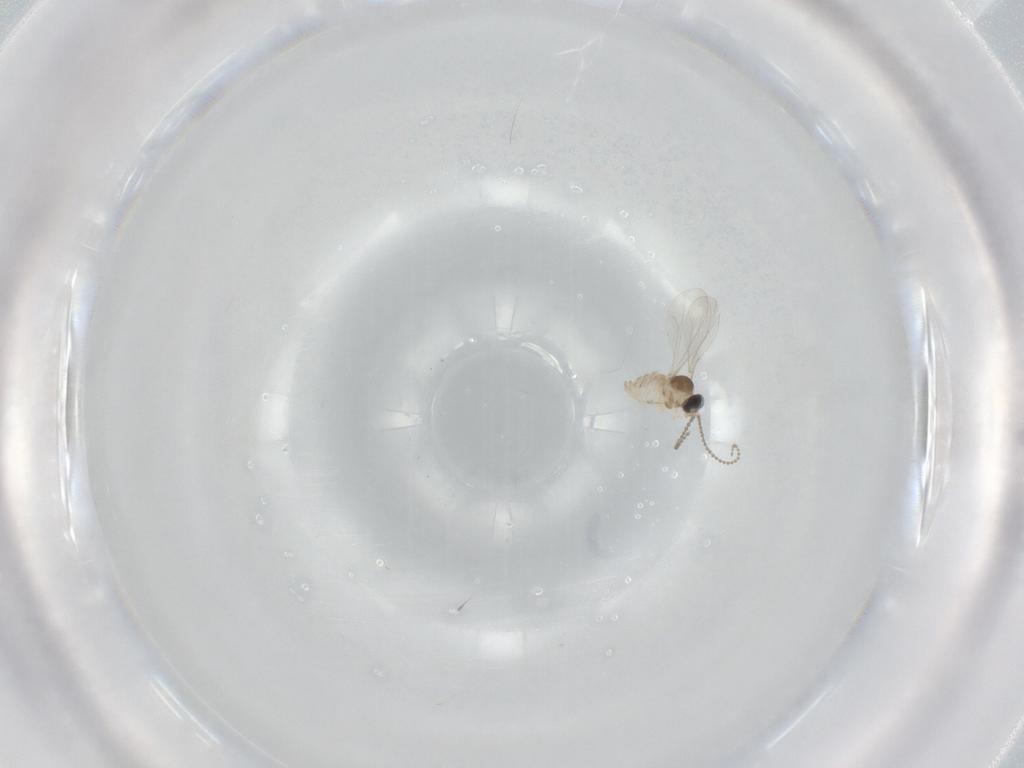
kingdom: Animalia
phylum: Arthropoda
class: Insecta
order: Diptera
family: Cecidomyiidae
